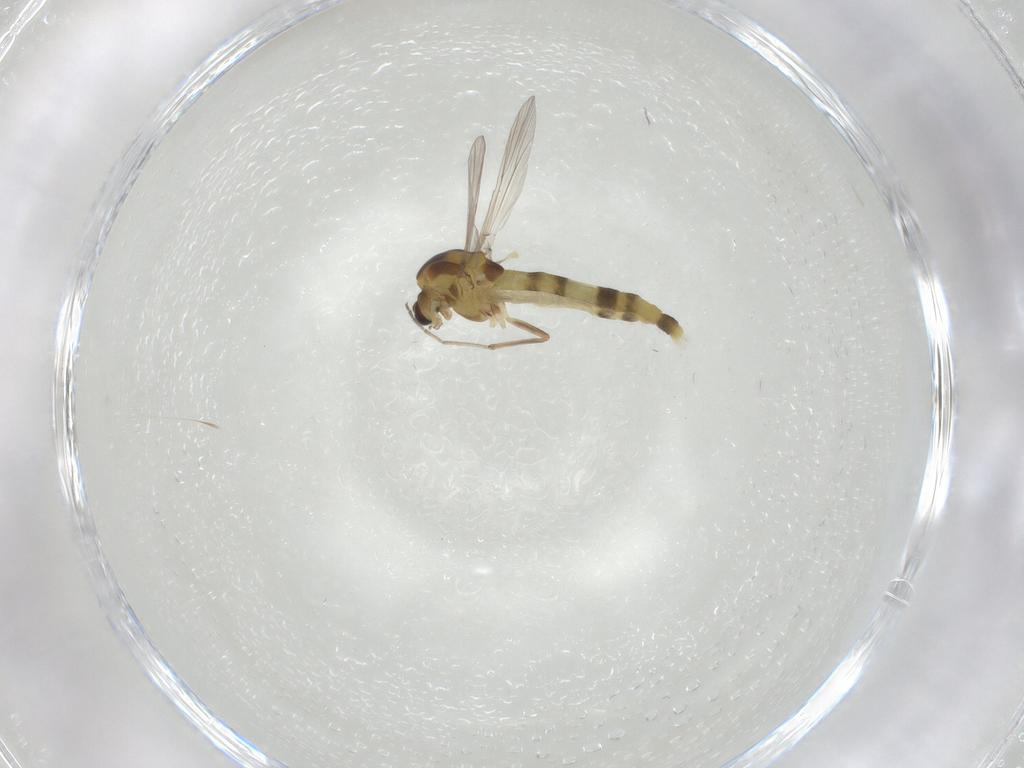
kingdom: Animalia
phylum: Arthropoda
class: Insecta
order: Diptera
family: Chironomidae
